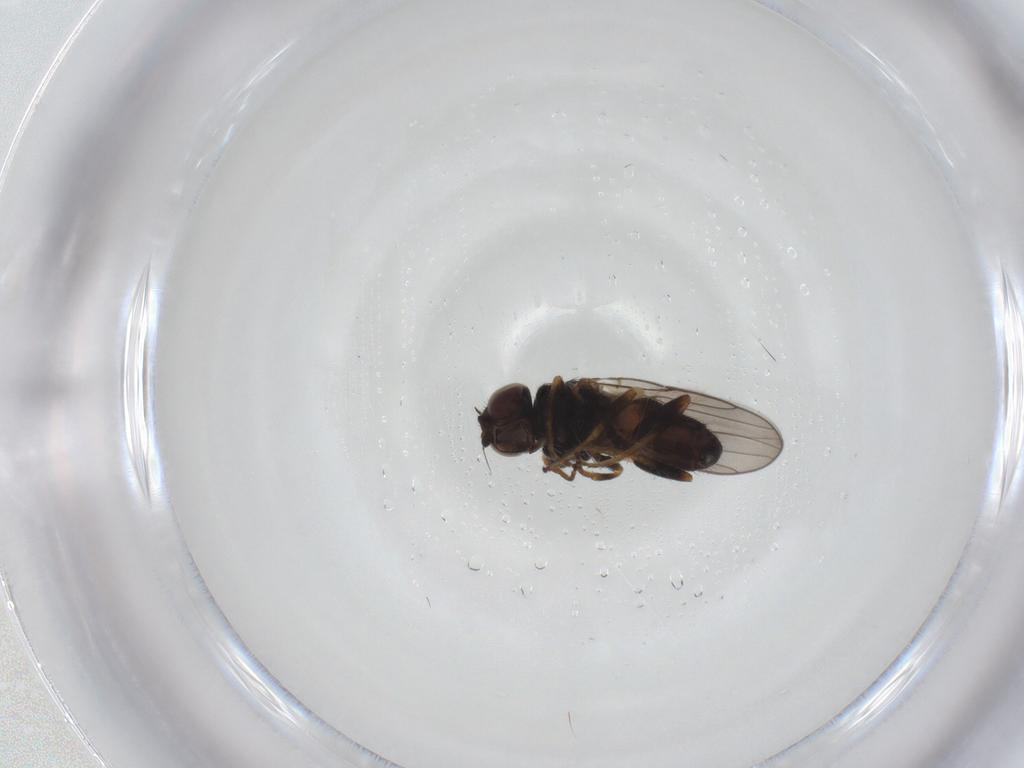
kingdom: Animalia
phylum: Arthropoda
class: Insecta
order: Diptera
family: Chloropidae
